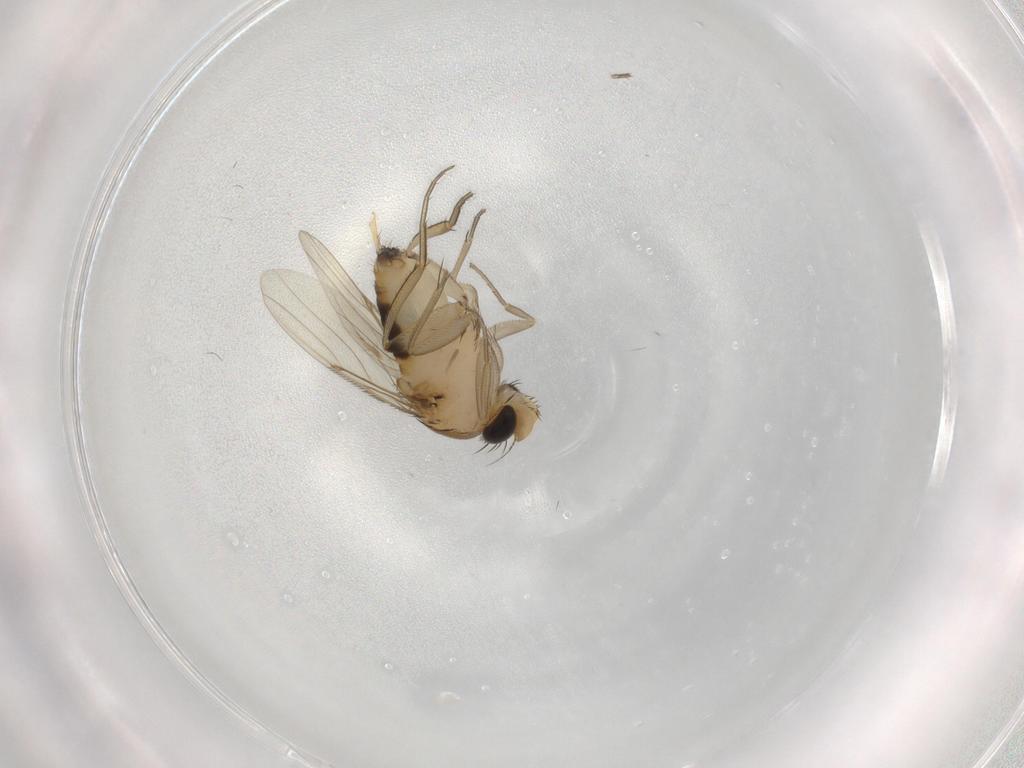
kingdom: Animalia
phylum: Arthropoda
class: Insecta
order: Diptera
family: Phoridae
